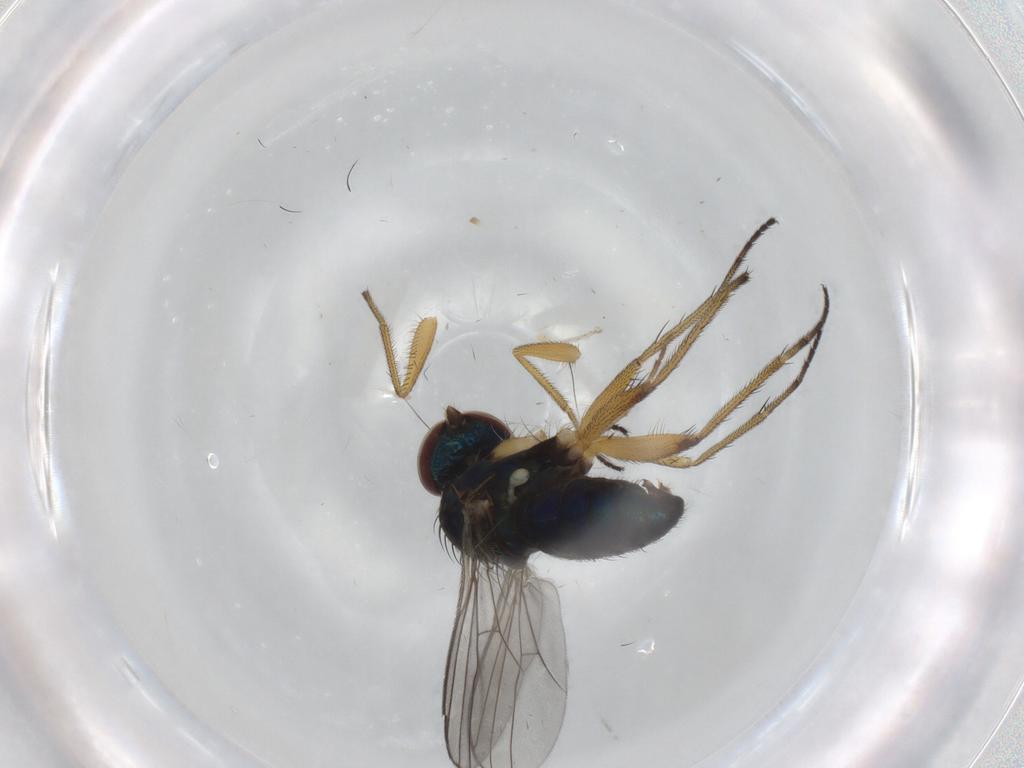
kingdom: Animalia
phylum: Arthropoda
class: Insecta
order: Diptera
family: Dolichopodidae
